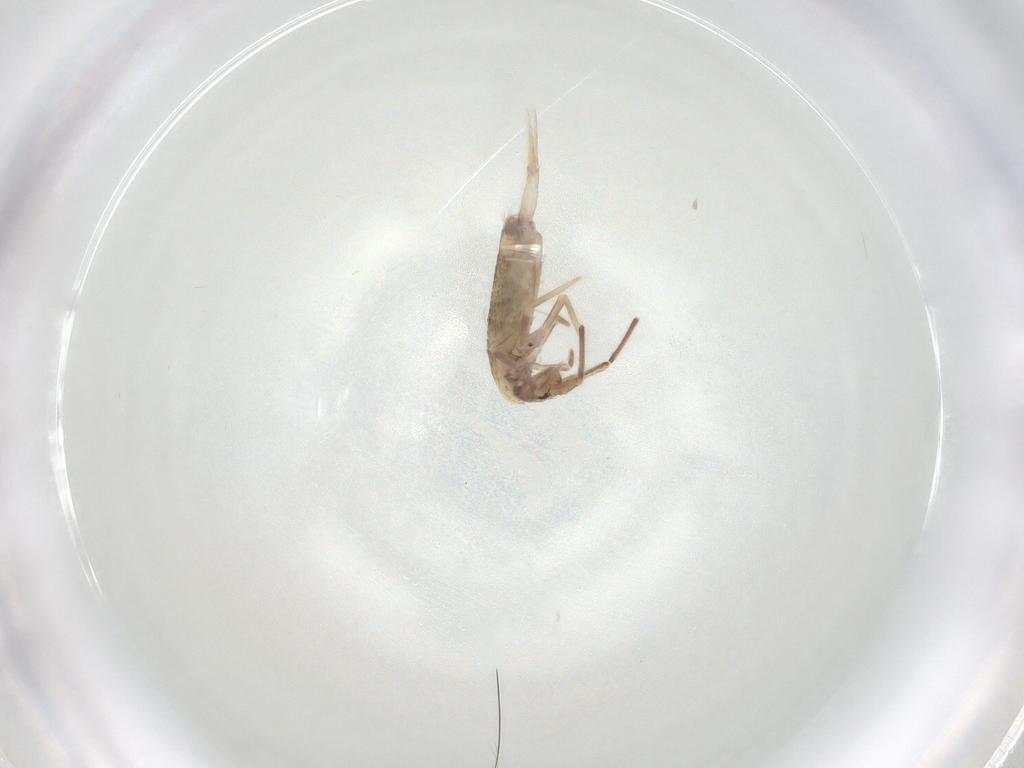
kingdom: Animalia
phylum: Arthropoda
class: Collembola
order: Entomobryomorpha
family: Entomobryidae
